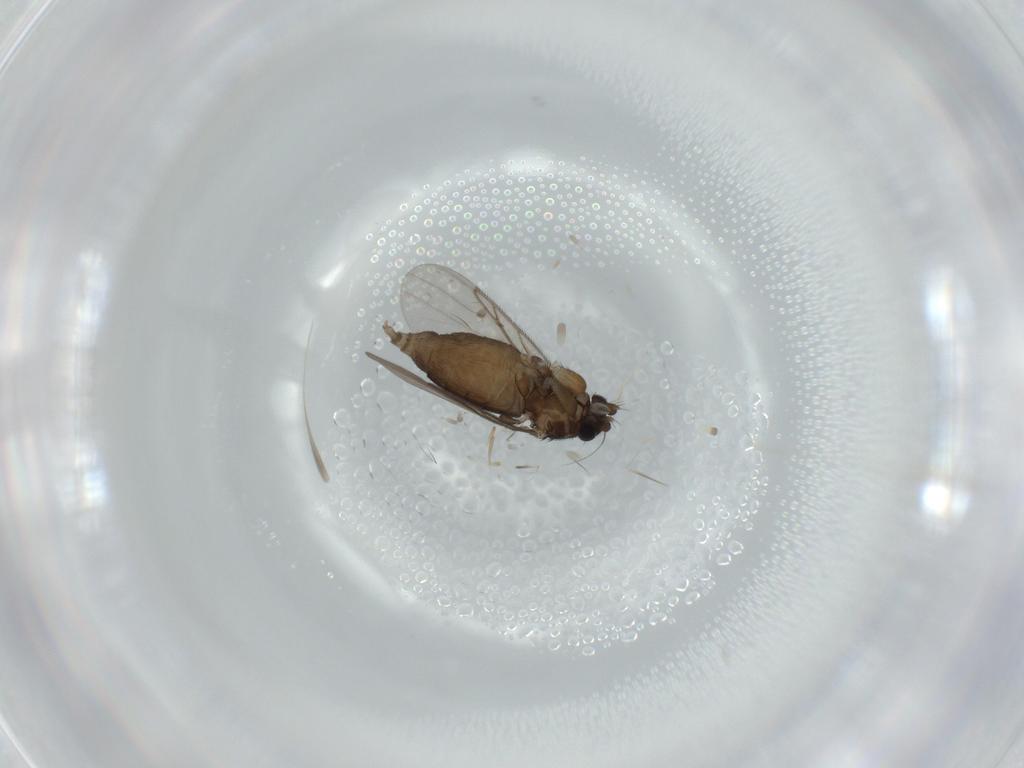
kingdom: Animalia
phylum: Arthropoda
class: Insecta
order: Diptera
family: Phoridae
